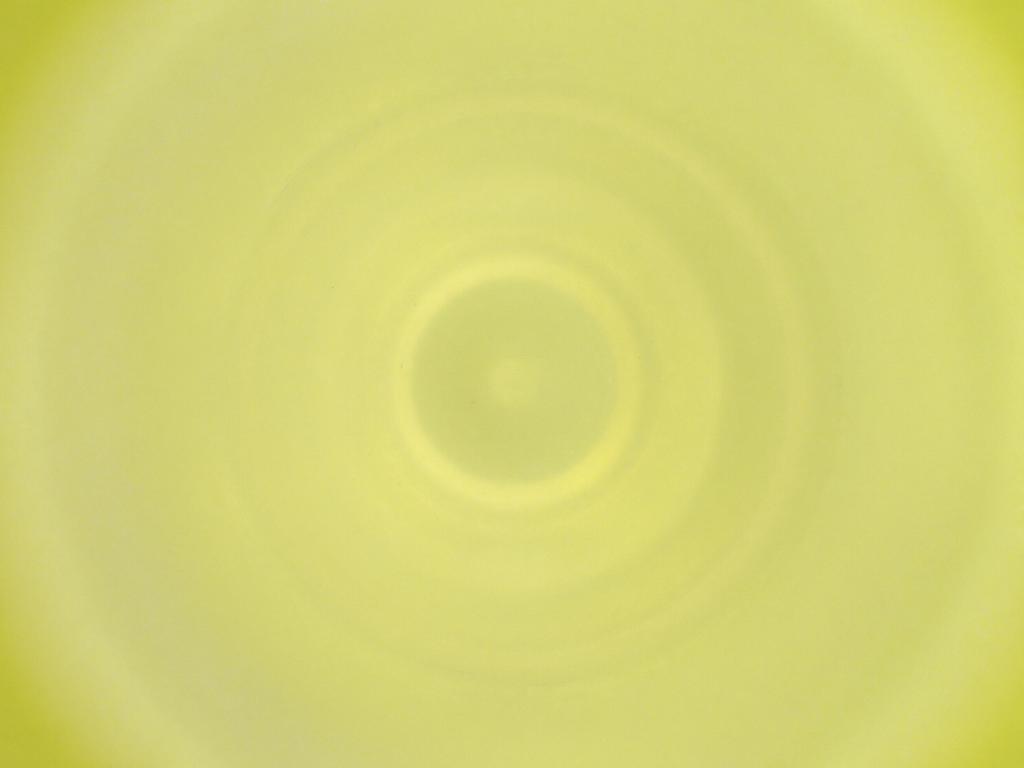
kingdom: Animalia
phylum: Arthropoda
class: Insecta
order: Diptera
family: Cecidomyiidae
